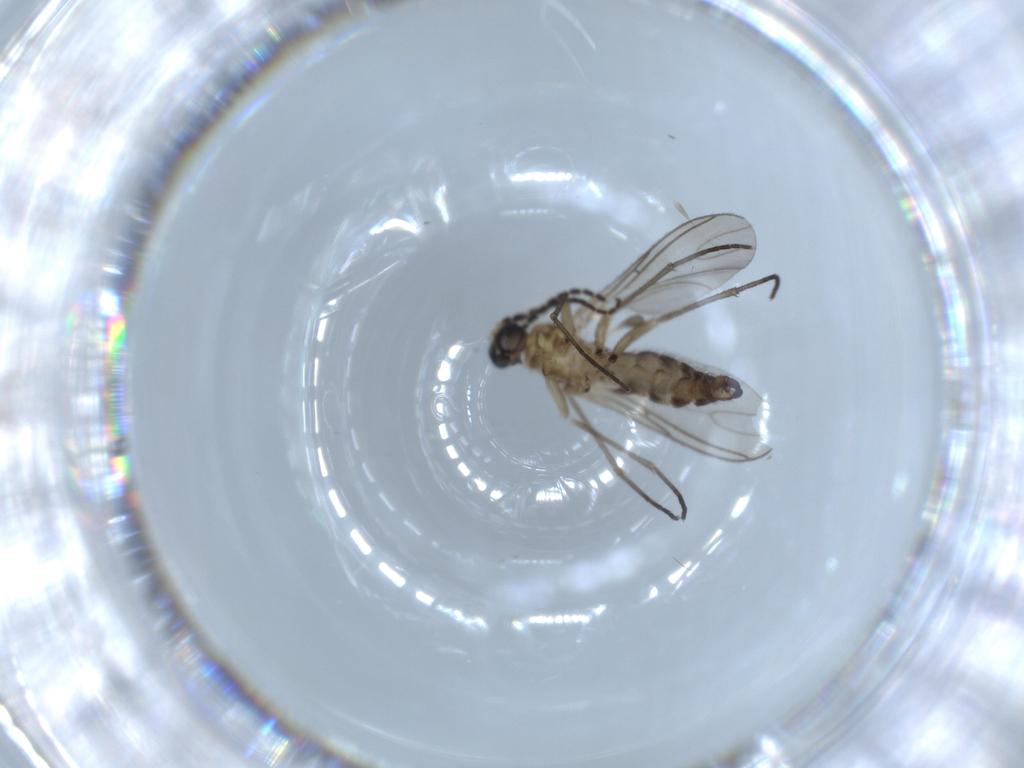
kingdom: Animalia
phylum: Arthropoda
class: Insecta
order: Diptera
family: Sciaridae
